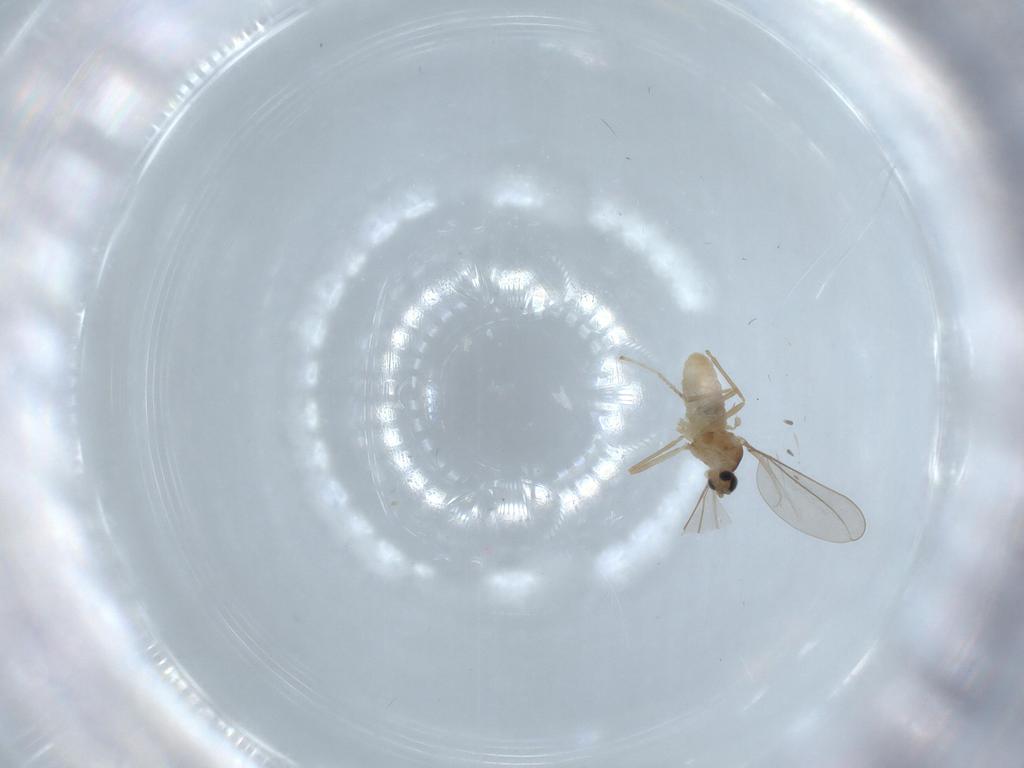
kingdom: Animalia
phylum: Arthropoda
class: Insecta
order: Diptera
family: Cecidomyiidae
